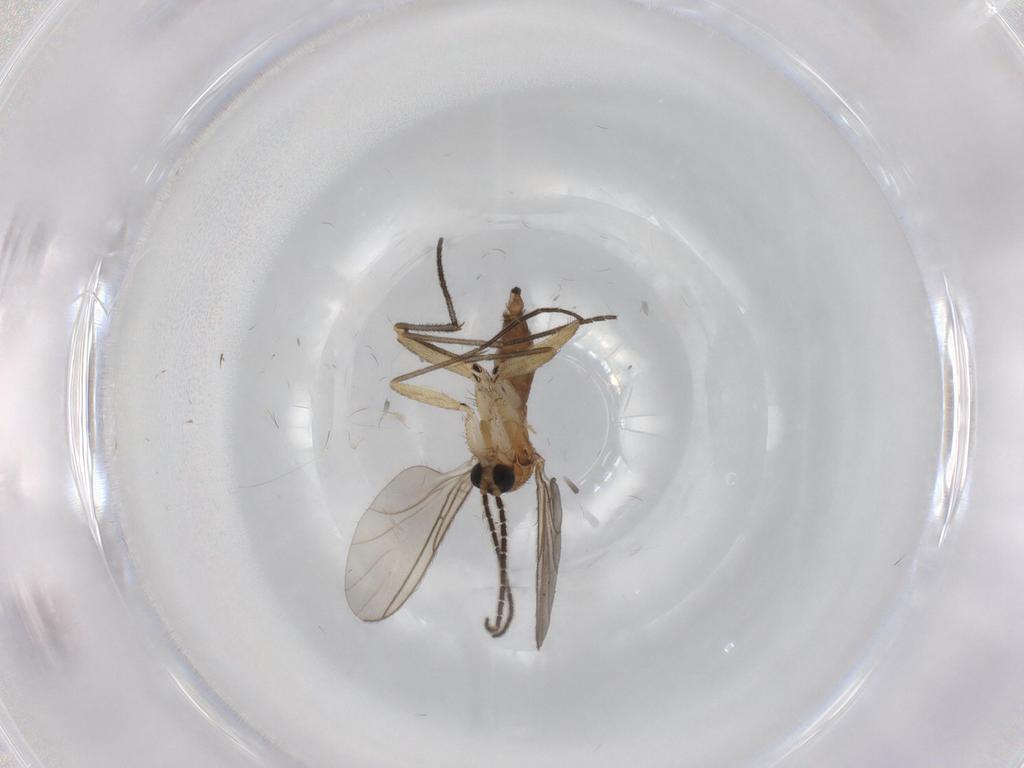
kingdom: Animalia
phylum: Arthropoda
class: Insecta
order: Diptera
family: Sciaridae
